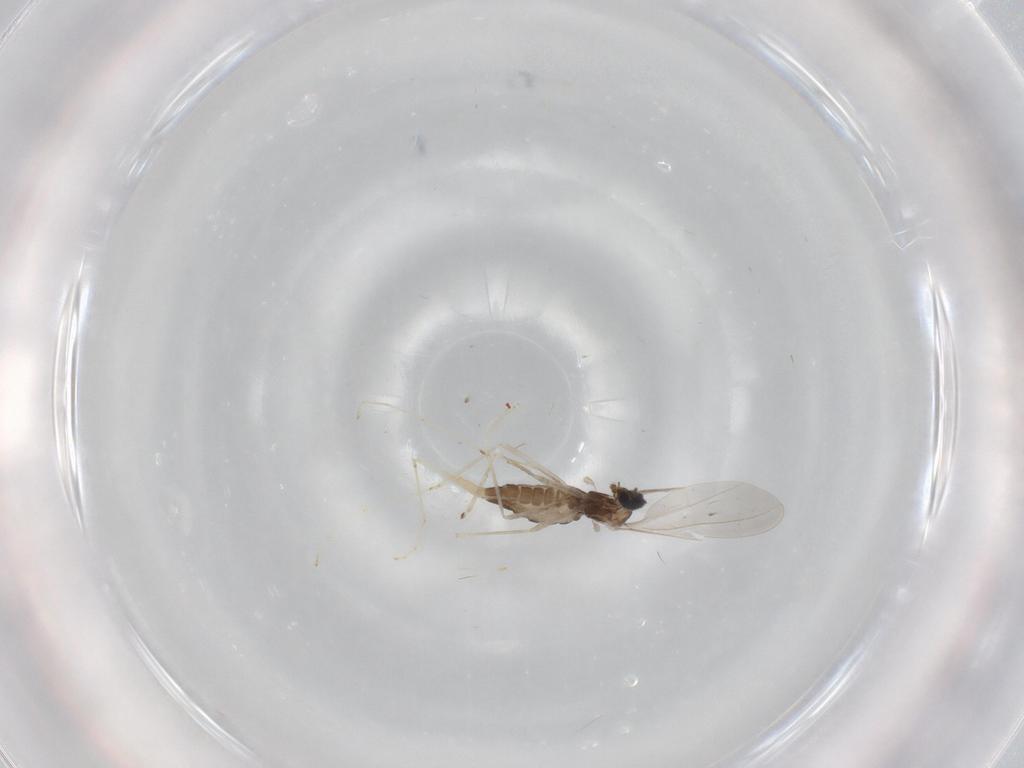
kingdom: Animalia
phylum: Arthropoda
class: Insecta
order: Diptera
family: Cecidomyiidae
